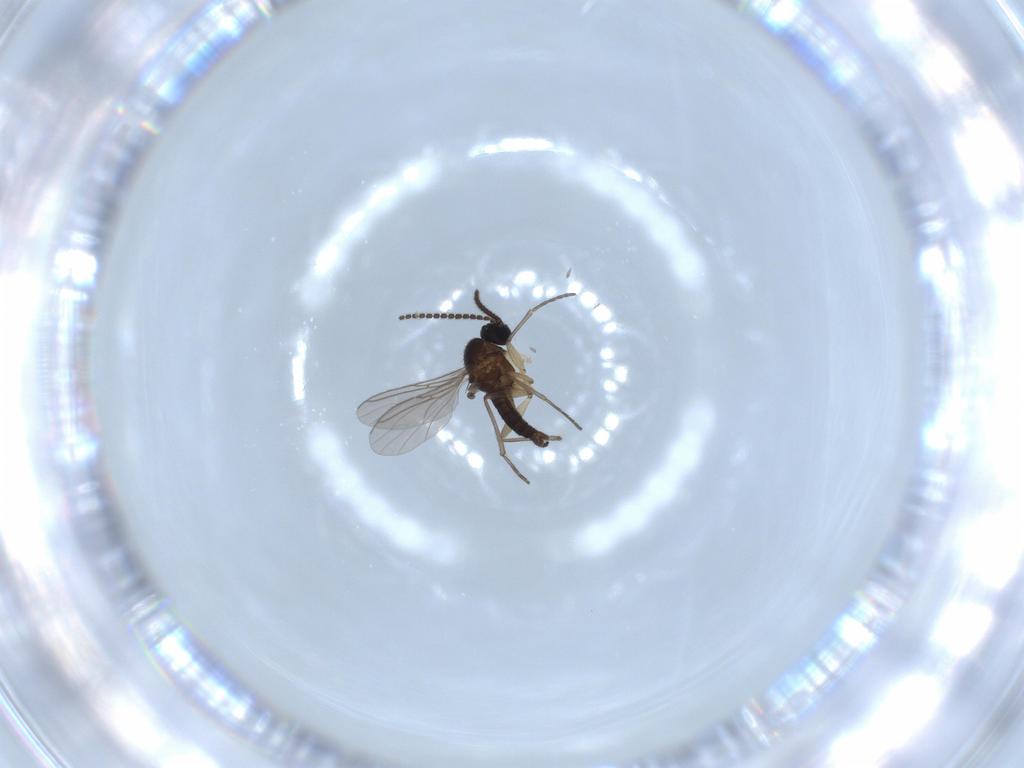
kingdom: Animalia
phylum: Arthropoda
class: Insecta
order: Diptera
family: Sciaridae
